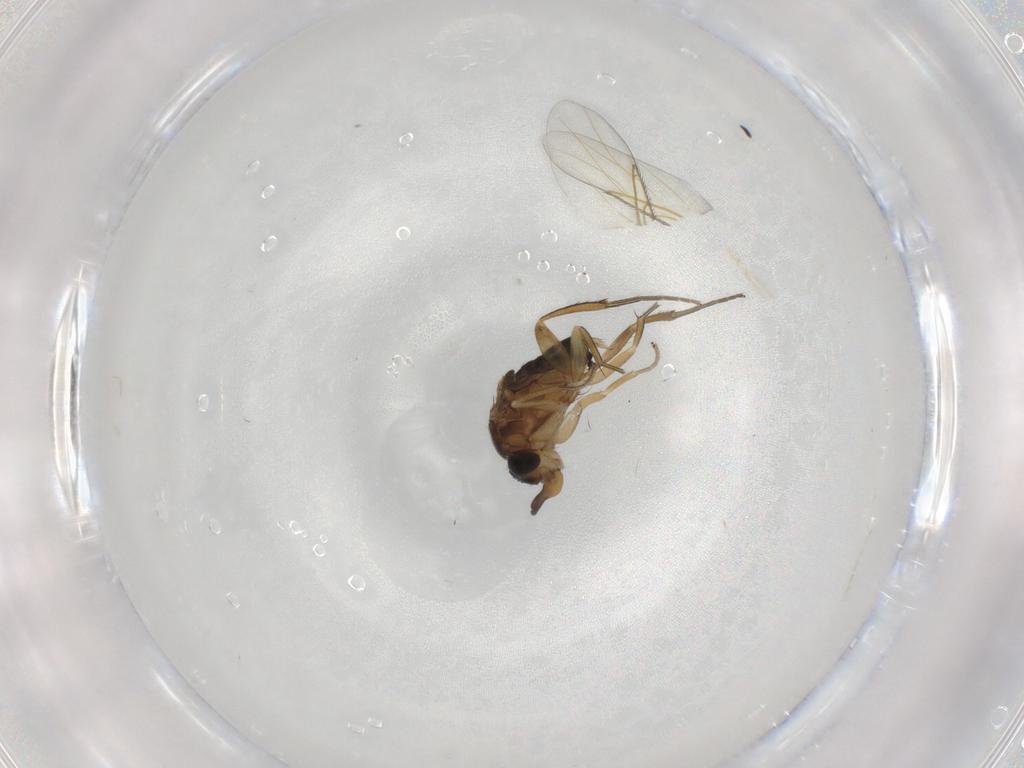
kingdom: Animalia
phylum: Arthropoda
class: Insecta
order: Diptera
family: Phoridae
